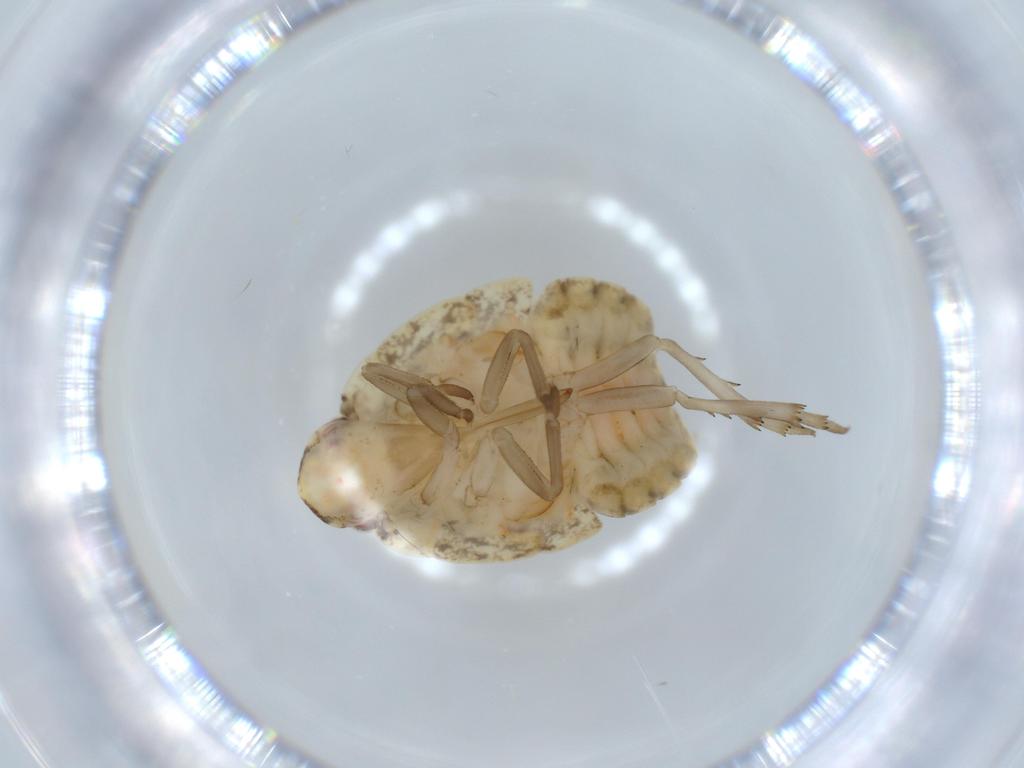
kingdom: Animalia
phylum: Arthropoda
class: Insecta
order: Hemiptera
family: Flatidae
